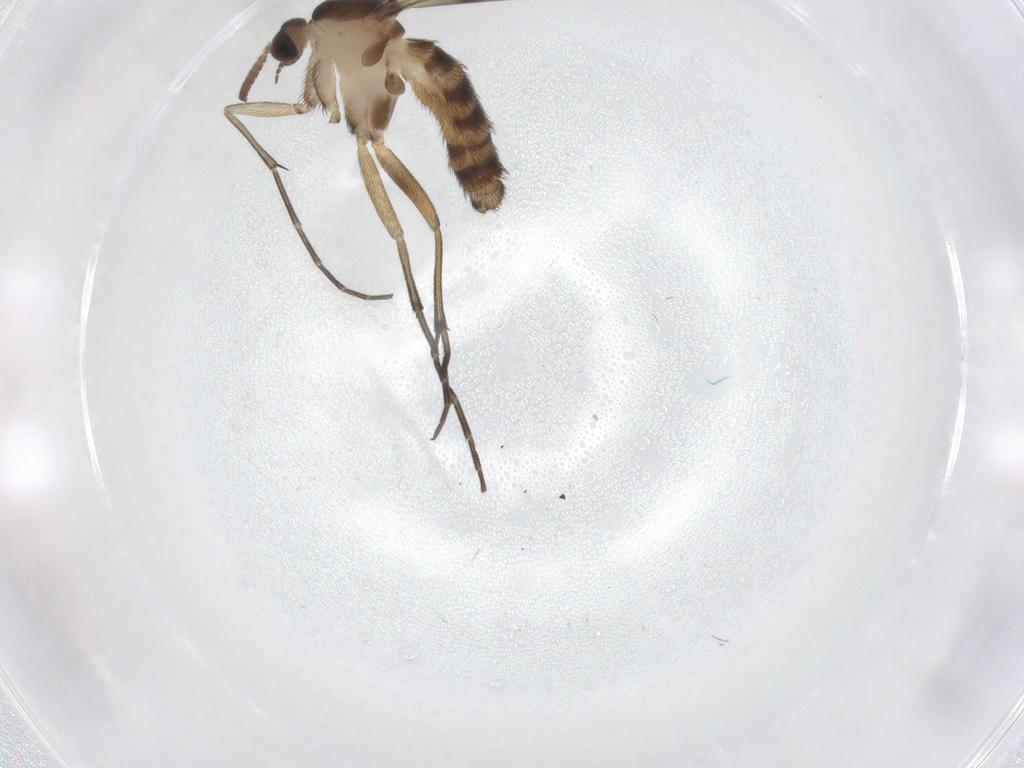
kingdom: Animalia
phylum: Arthropoda
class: Insecta
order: Diptera
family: Keroplatidae
